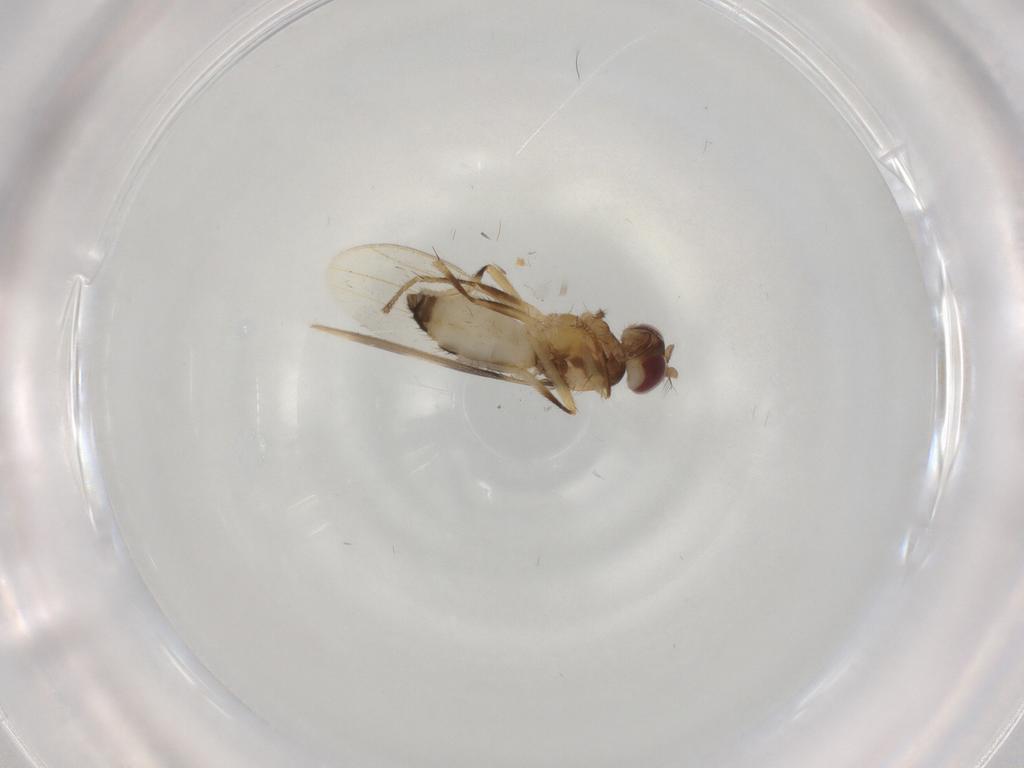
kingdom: Animalia
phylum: Arthropoda
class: Insecta
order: Diptera
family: Periscelididae
